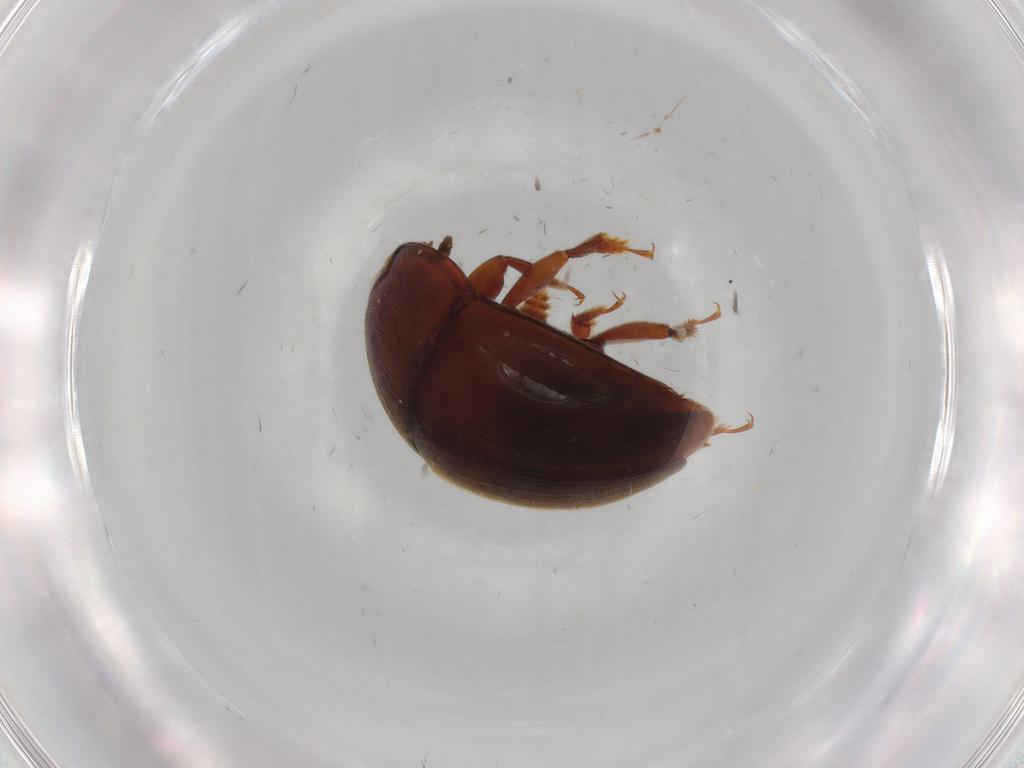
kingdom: Animalia
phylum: Arthropoda
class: Insecta
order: Coleoptera
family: Nitidulidae
